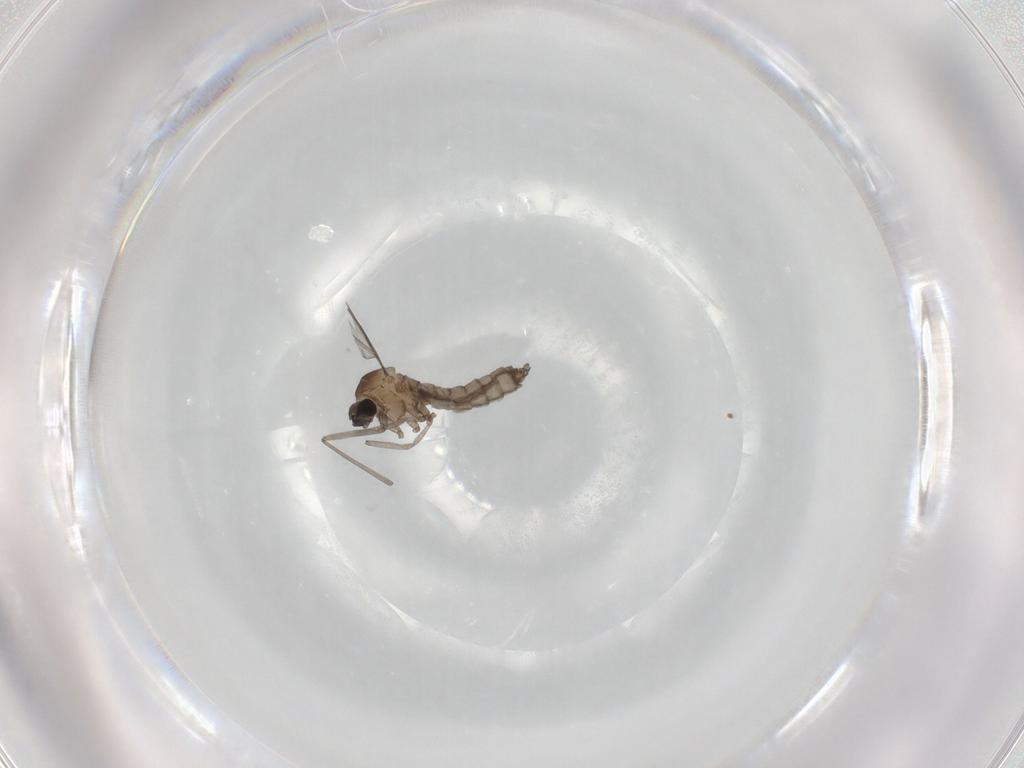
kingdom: Animalia
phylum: Arthropoda
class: Insecta
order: Diptera
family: Cecidomyiidae
